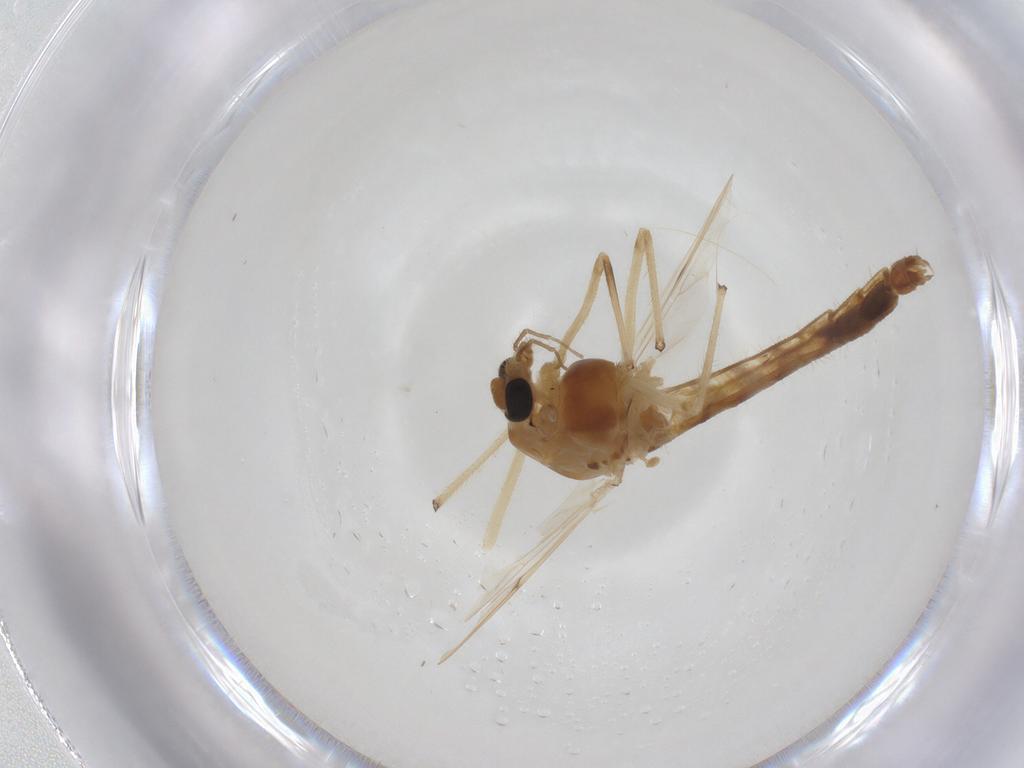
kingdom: Animalia
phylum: Arthropoda
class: Insecta
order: Diptera
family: Chironomidae
